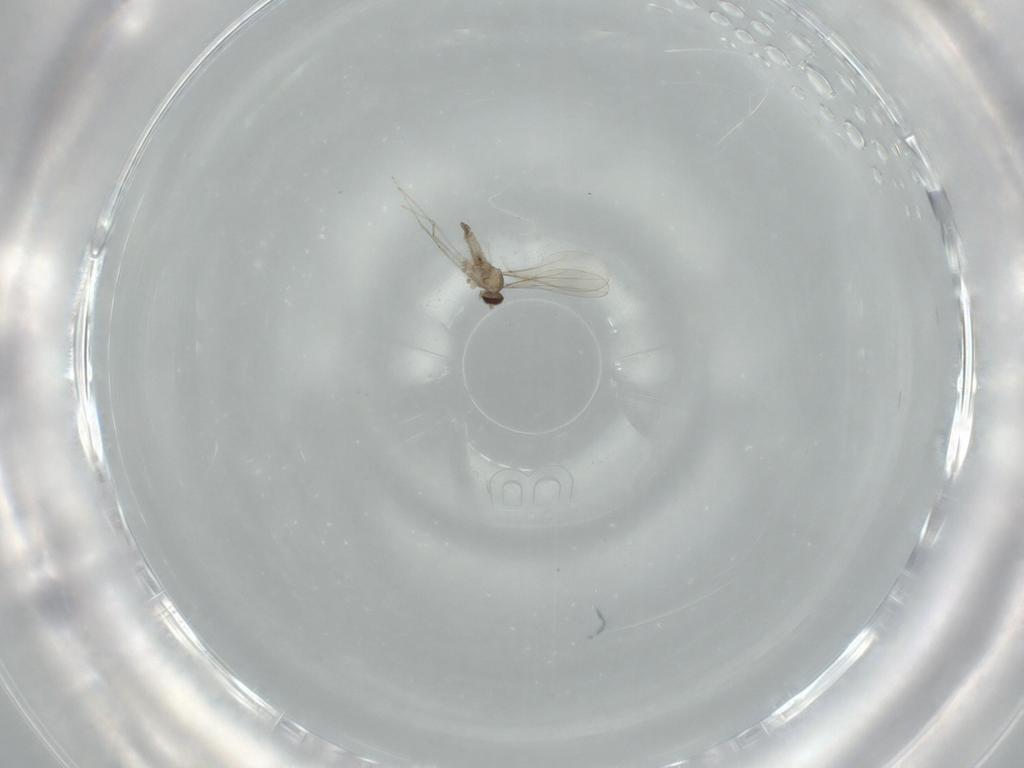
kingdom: Animalia
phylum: Arthropoda
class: Insecta
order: Diptera
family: Cecidomyiidae
